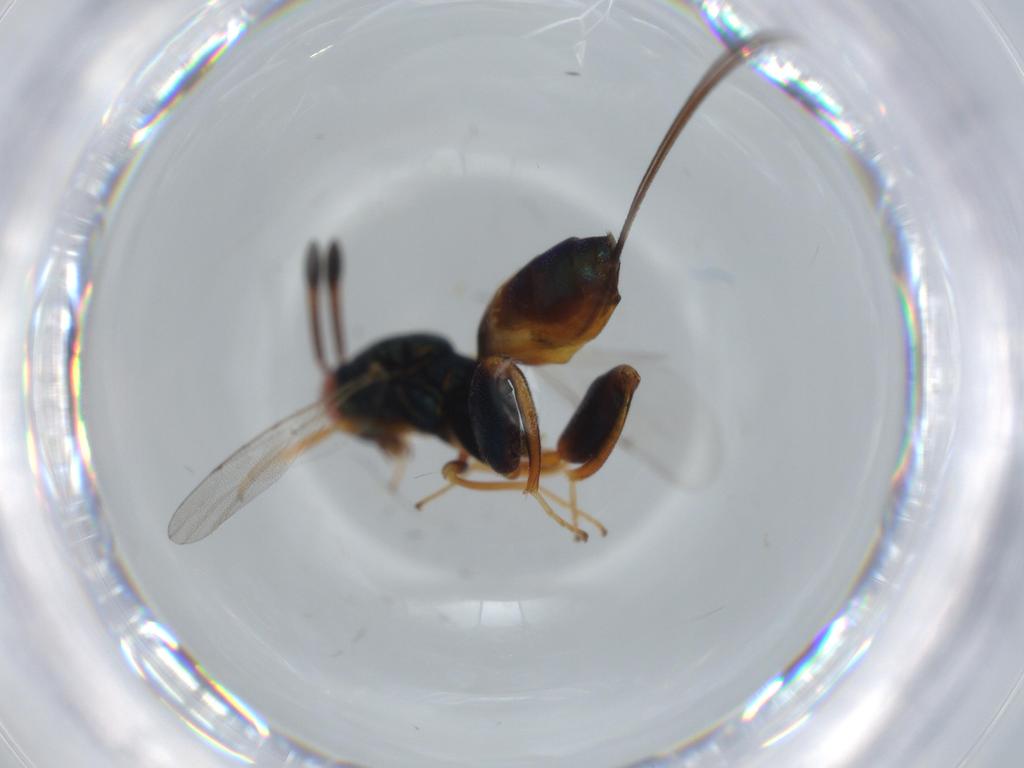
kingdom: Animalia
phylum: Arthropoda
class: Insecta
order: Hymenoptera
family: Torymidae
